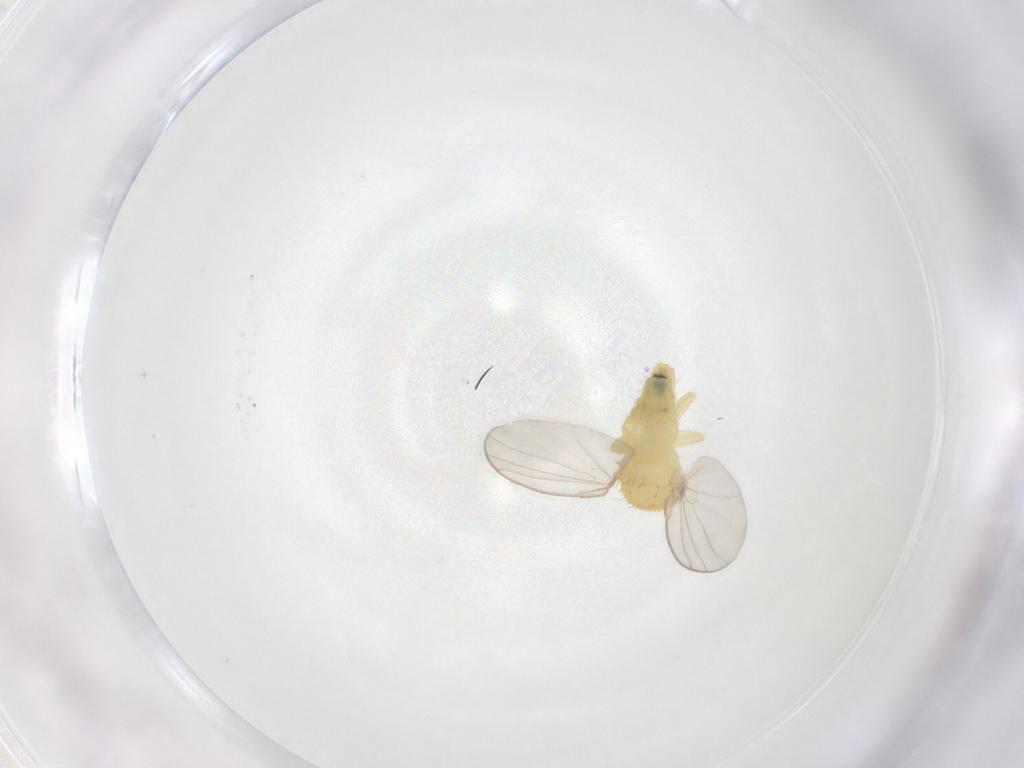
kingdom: Animalia
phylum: Arthropoda
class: Insecta
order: Diptera
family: Agromyzidae
